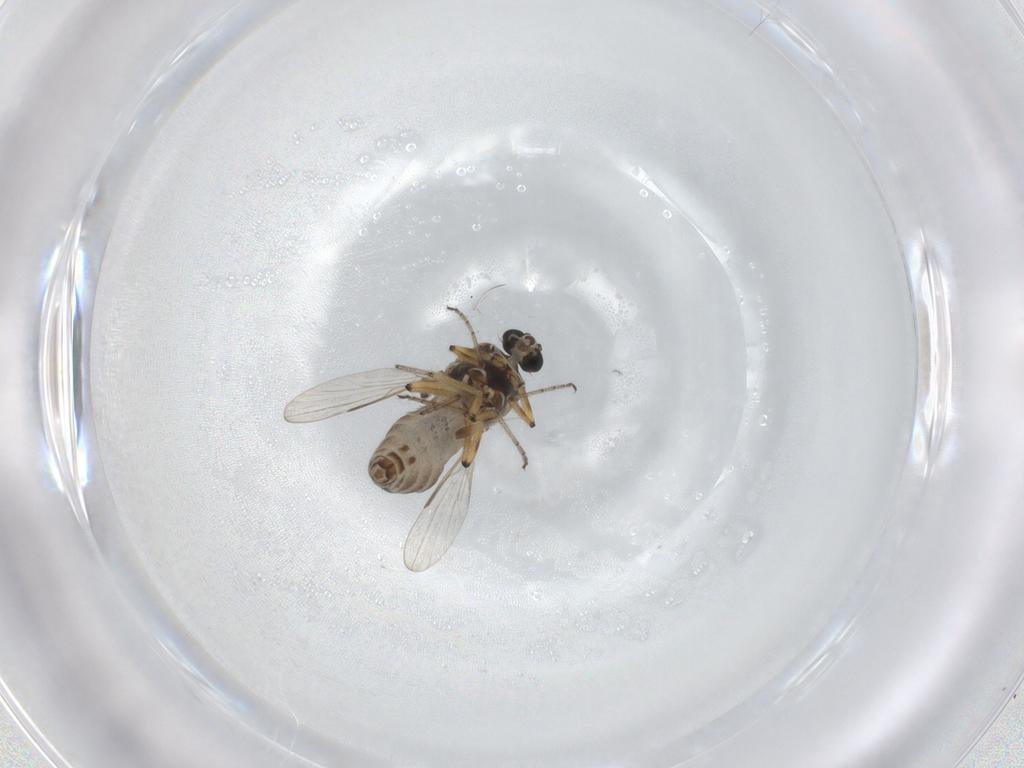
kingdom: Animalia
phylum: Arthropoda
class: Insecta
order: Diptera
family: Ceratopogonidae
